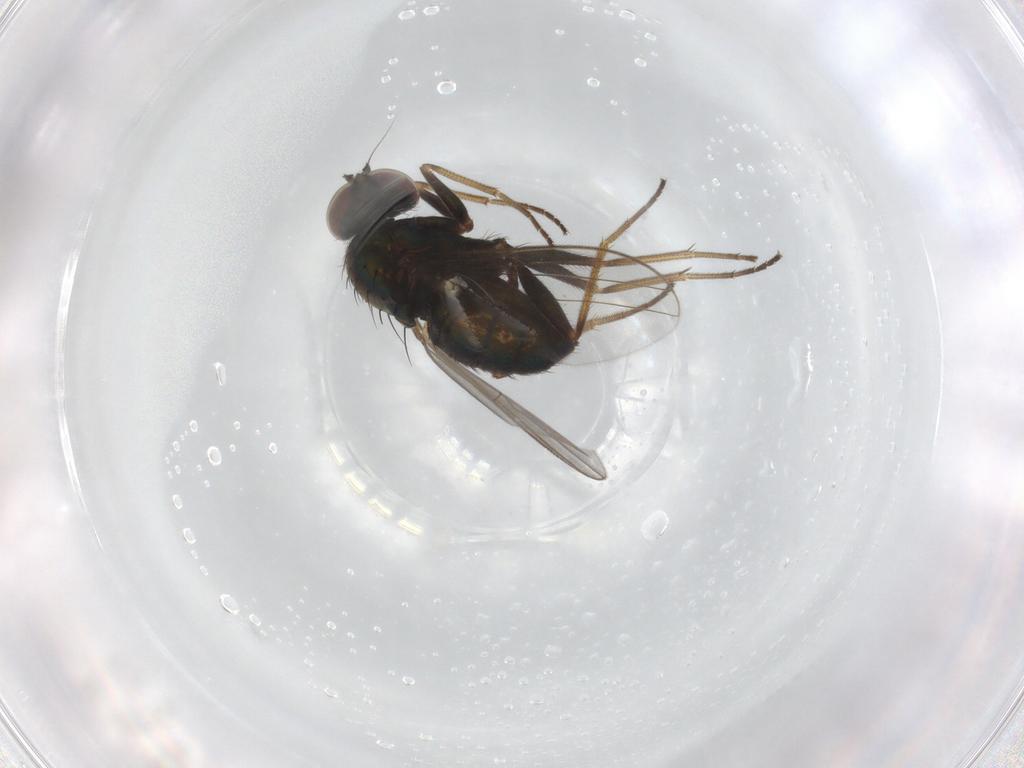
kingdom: Animalia
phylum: Arthropoda
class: Insecta
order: Diptera
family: Dolichopodidae
